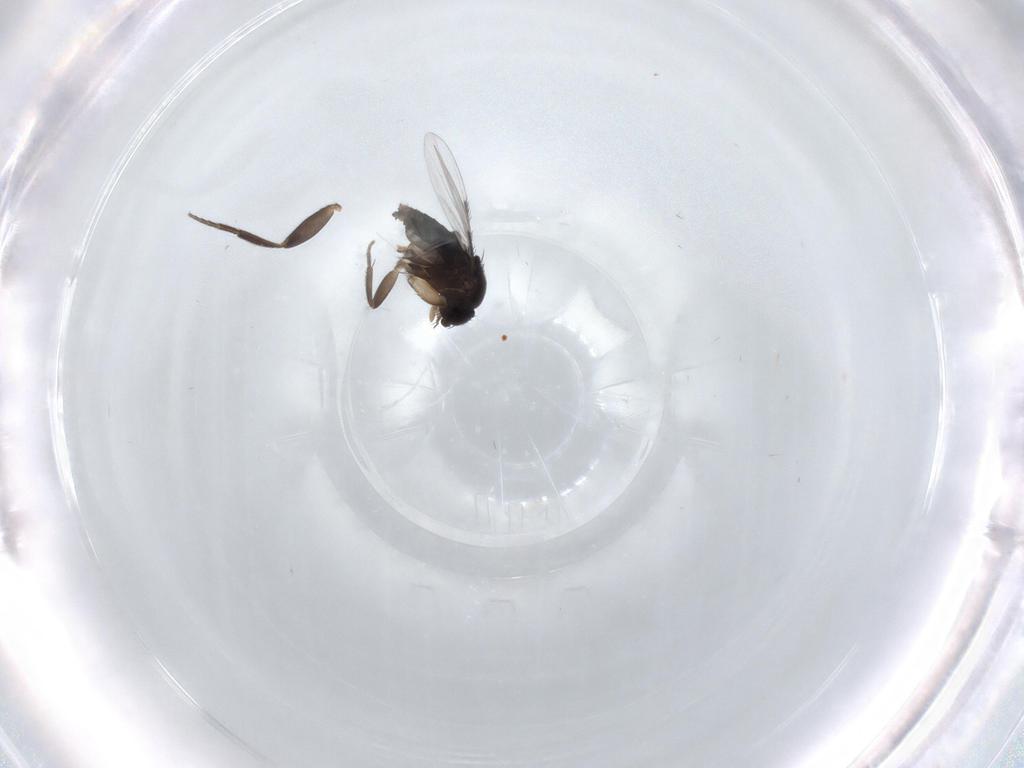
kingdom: Animalia
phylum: Arthropoda
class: Insecta
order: Diptera
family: Phoridae
